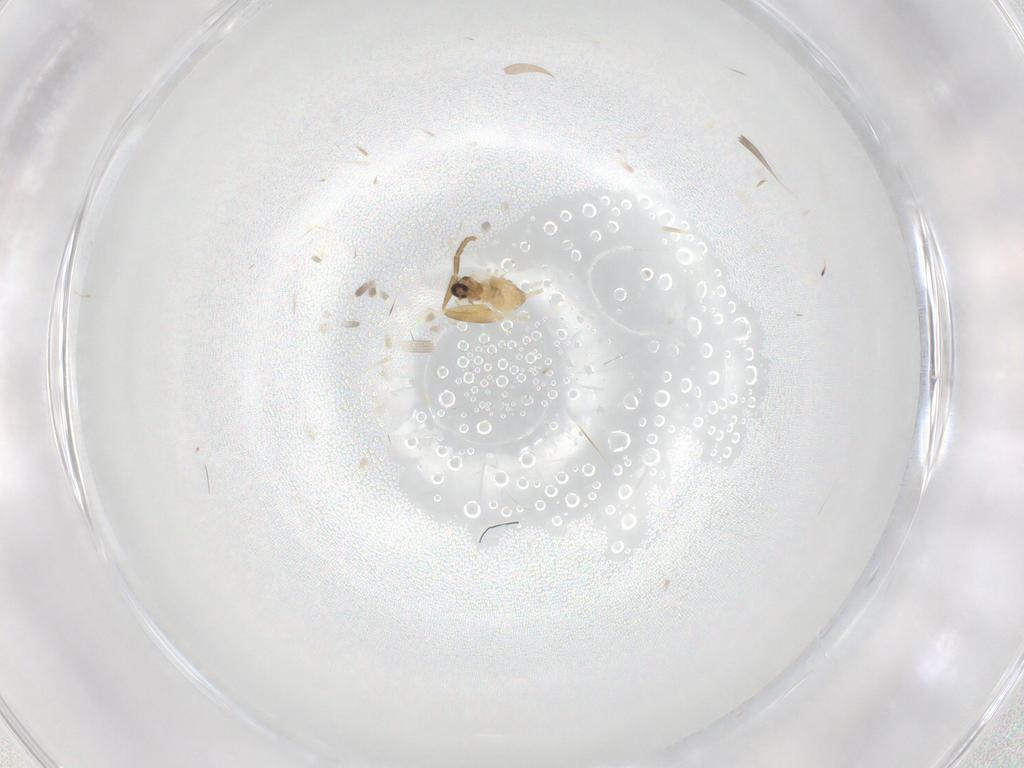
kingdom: Animalia
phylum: Arthropoda
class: Insecta
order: Diptera
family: Cecidomyiidae
